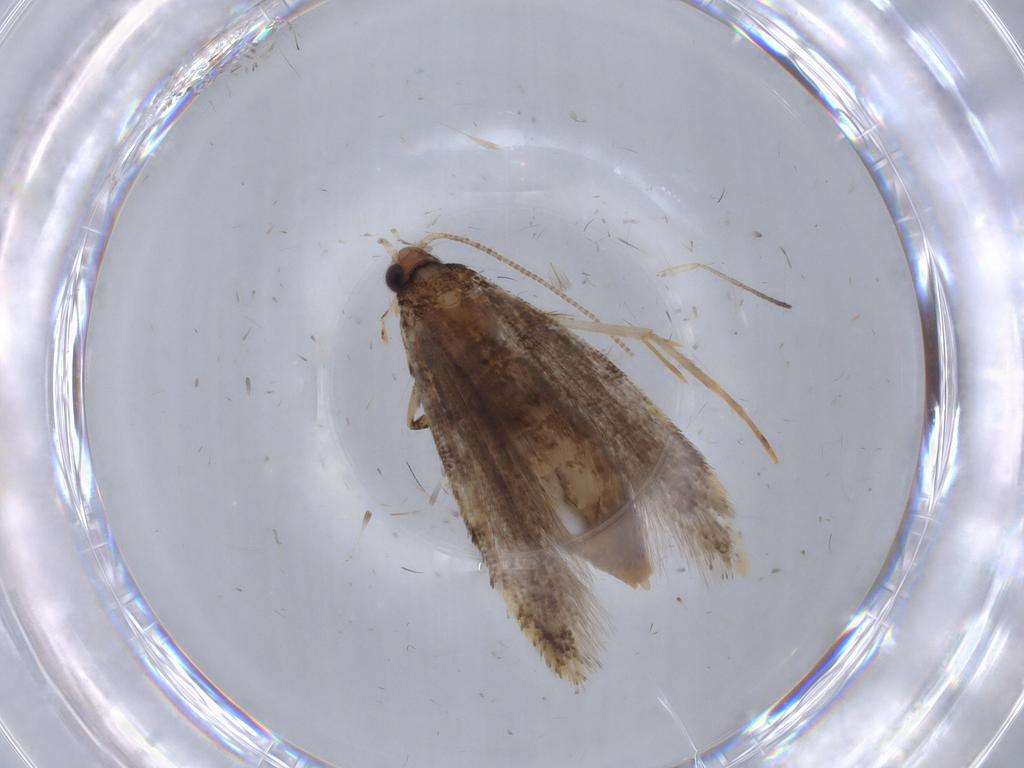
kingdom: Animalia
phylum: Arthropoda
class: Insecta
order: Lepidoptera
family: Tineidae
